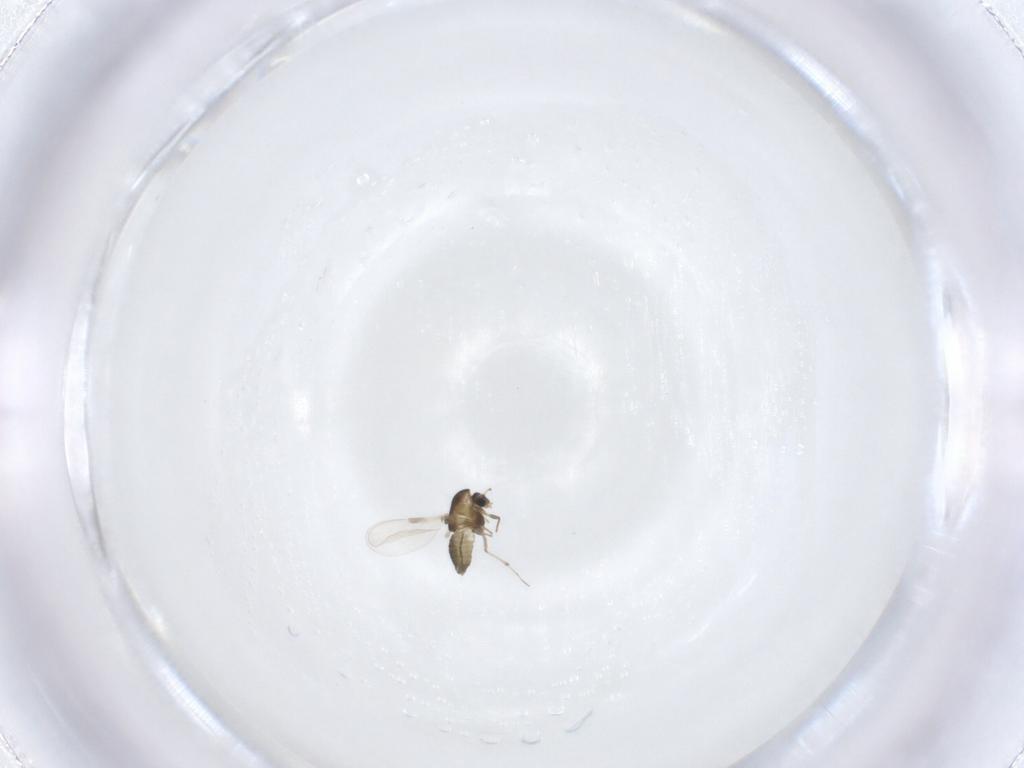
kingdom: Animalia
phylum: Arthropoda
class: Insecta
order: Diptera
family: Chironomidae
